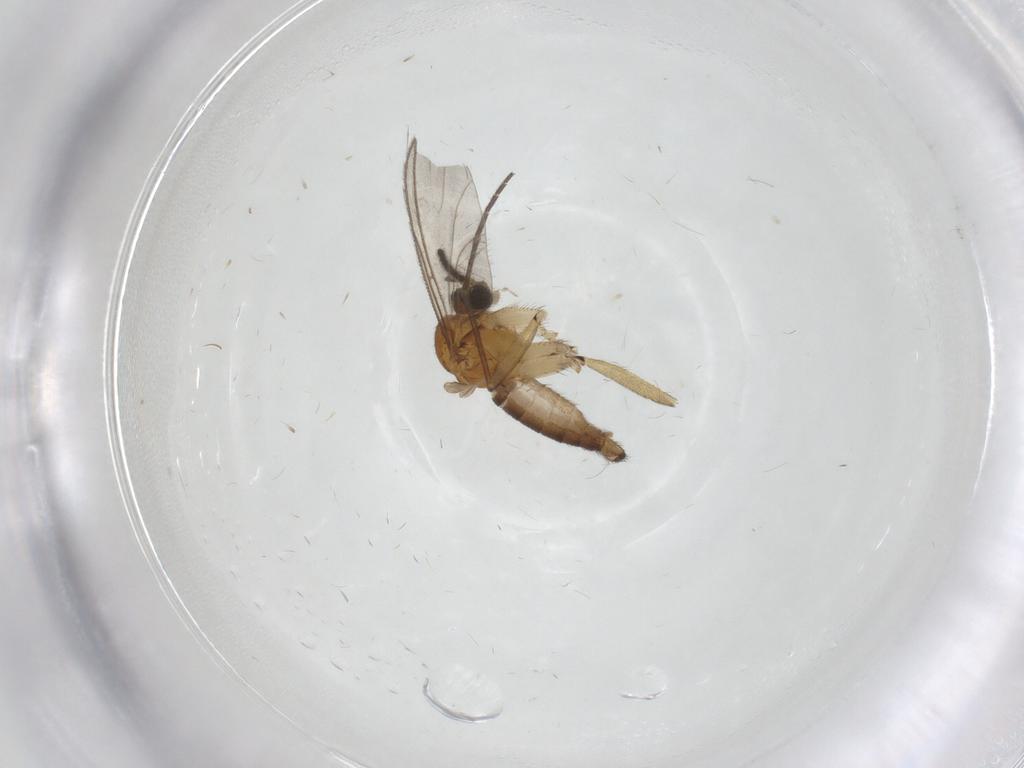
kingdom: Animalia
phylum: Arthropoda
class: Insecta
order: Diptera
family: Sciaridae
